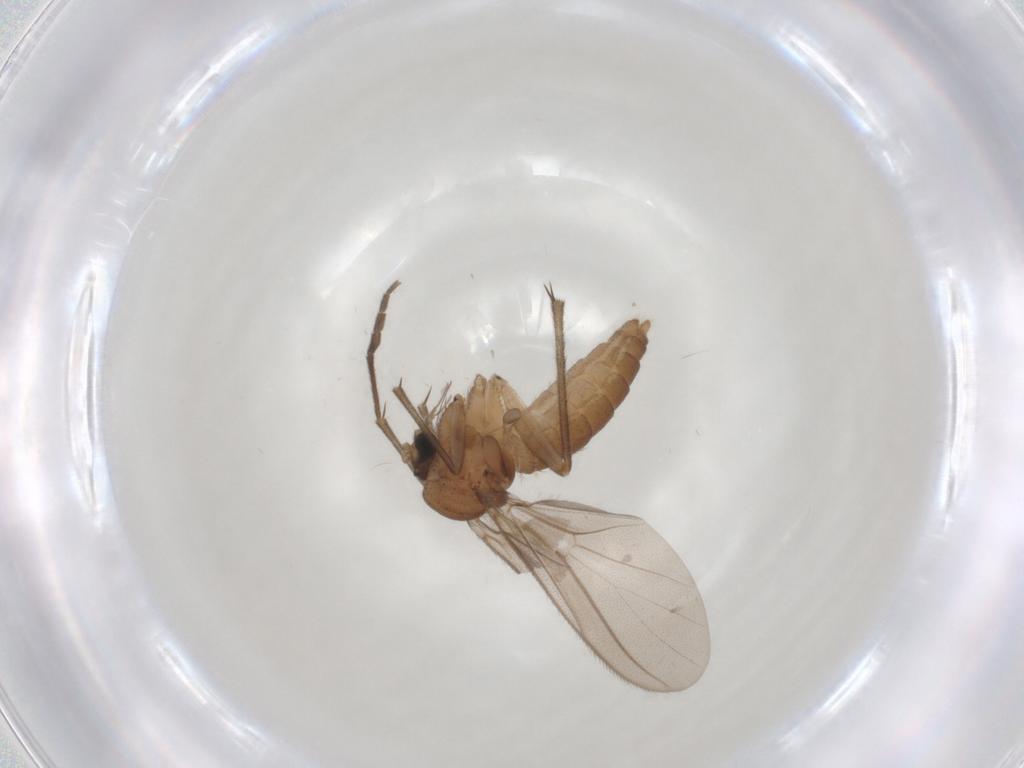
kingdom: Animalia
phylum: Arthropoda
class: Insecta
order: Diptera
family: Diadocidiidae
